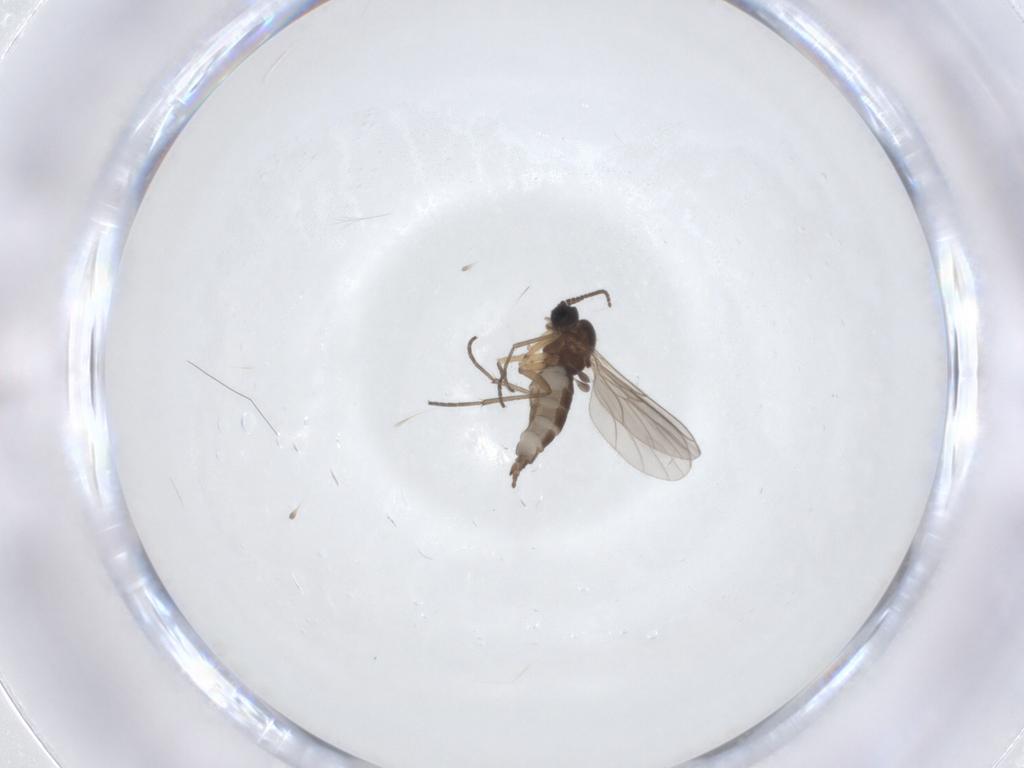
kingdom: Animalia
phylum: Arthropoda
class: Insecta
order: Diptera
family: Sciaridae
